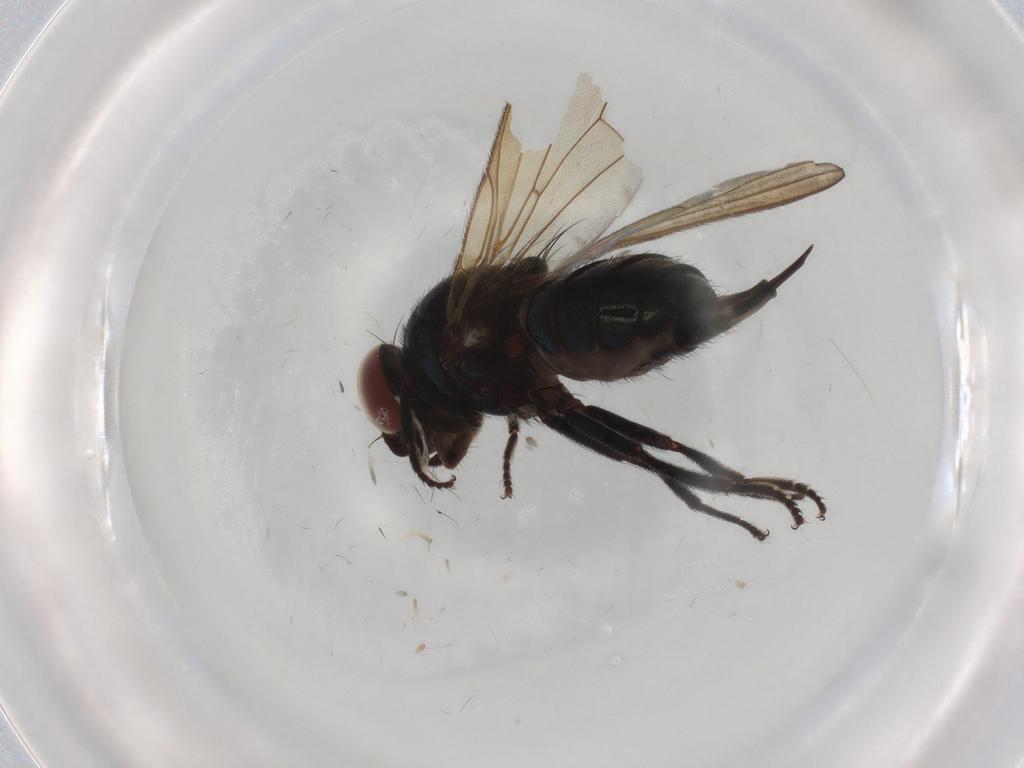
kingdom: Animalia
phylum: Arthropoda
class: Insecta
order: Diptera
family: Empididae
